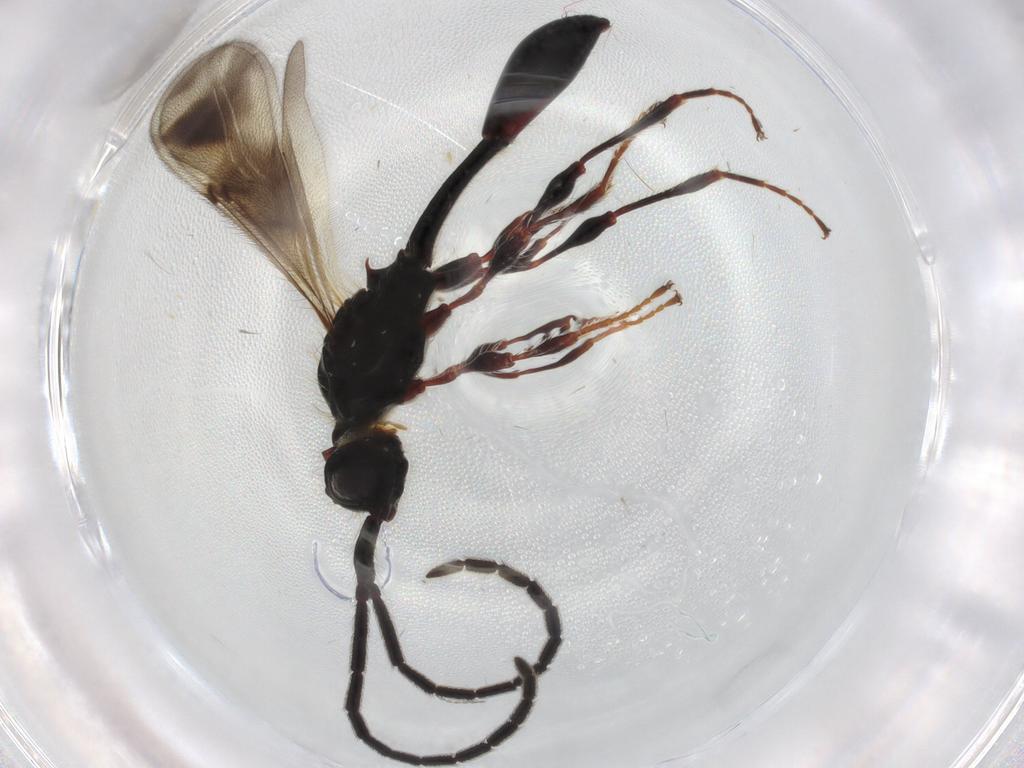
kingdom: Animalia
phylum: Arthropoda
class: Insecta
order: Hymenoptera
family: Diapriidae
